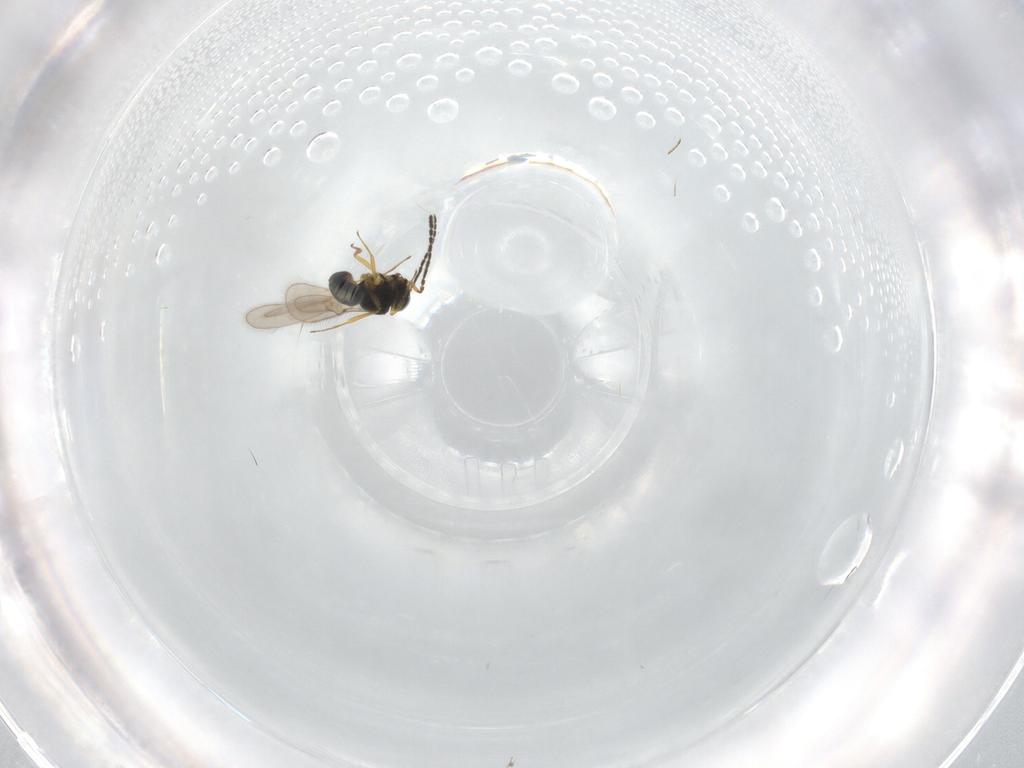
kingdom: Animalia
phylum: Arthropoda
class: Insecta
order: Hymenoptera
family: Scelionidae
